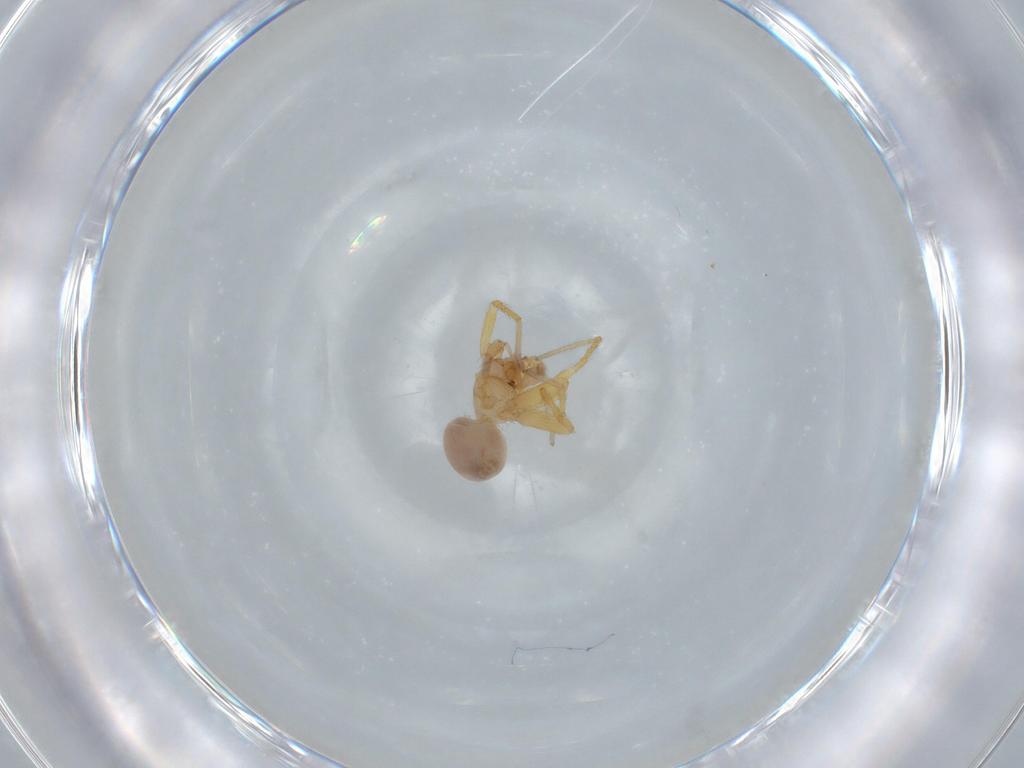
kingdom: Animalia
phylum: Arthropoda
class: Arachnida
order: Araneae
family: Oonopidae
